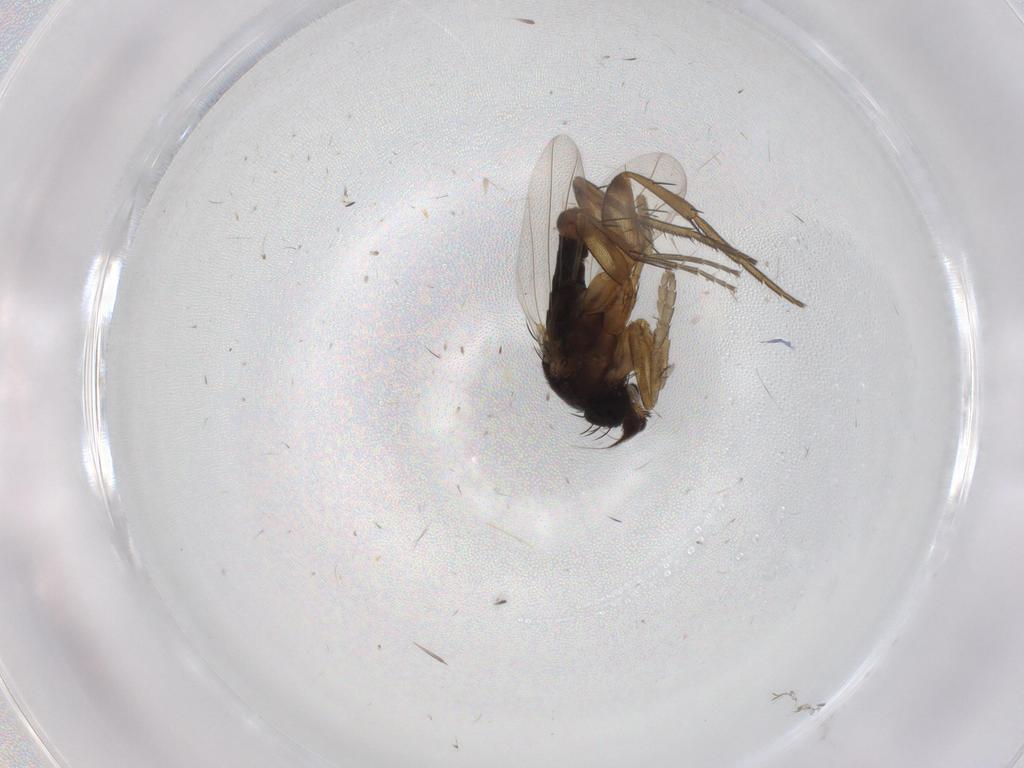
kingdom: Animalia
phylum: Arthropoda
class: Insecta
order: Diptera
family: Phoridae
